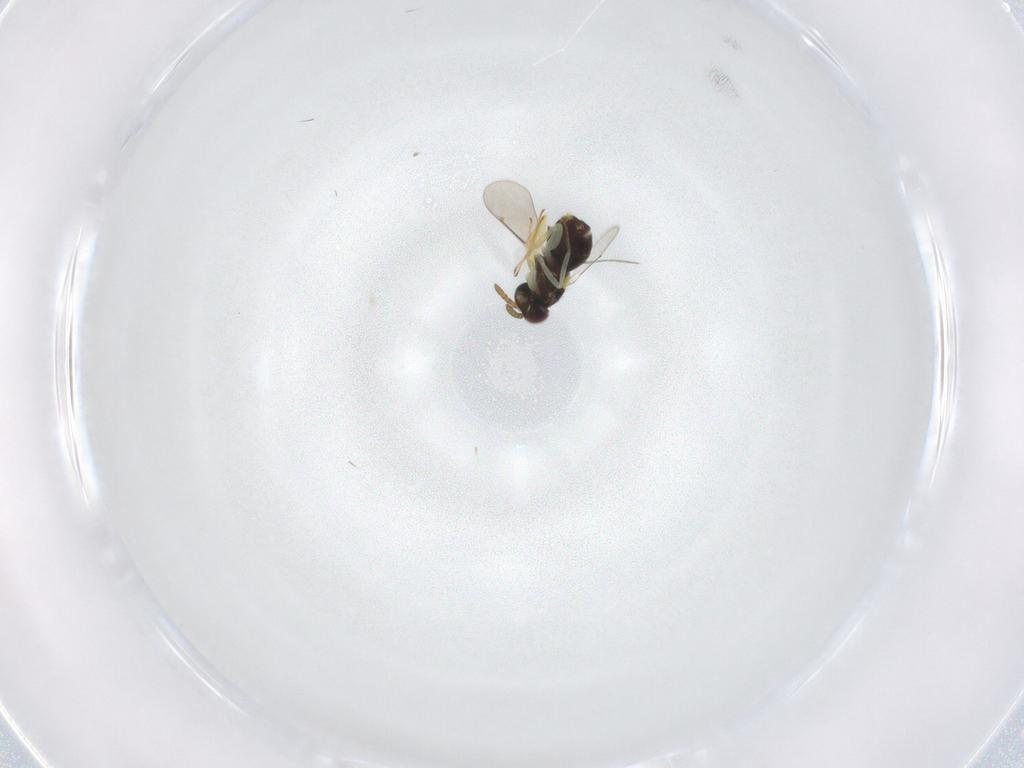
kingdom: Animalia
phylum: Arthropoda
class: Insecta
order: Hymenoptera
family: Aphelinidae
